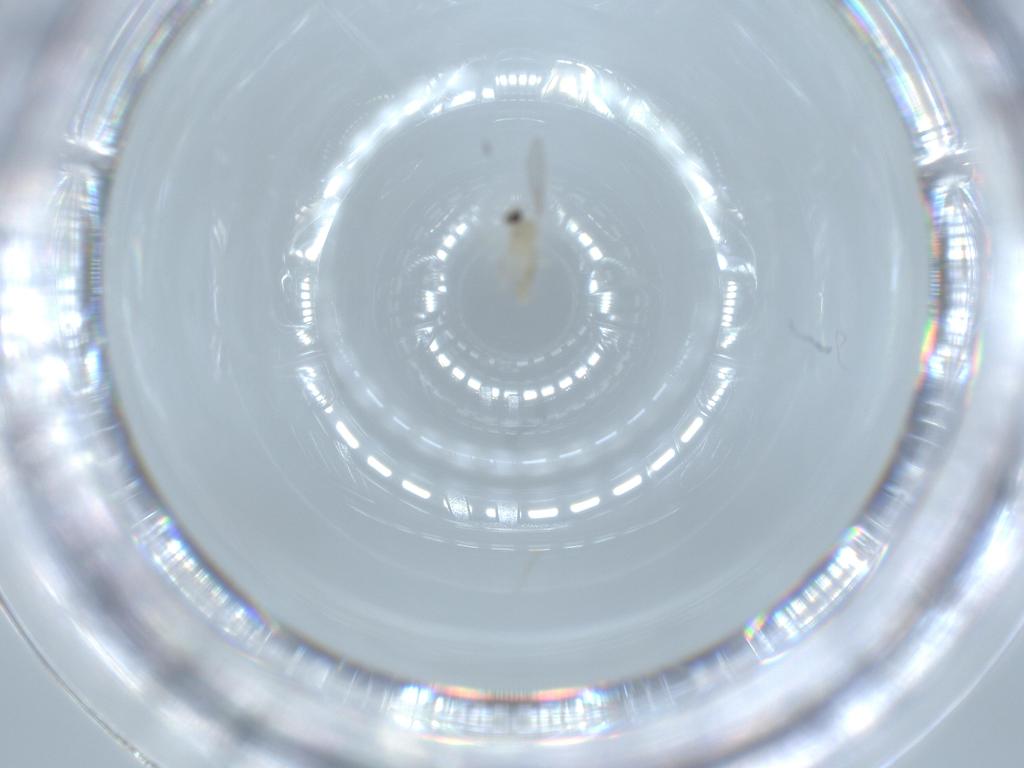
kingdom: Animalia
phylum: Arthropoda
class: Insecta
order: Diptera
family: Cecidomyiidae
